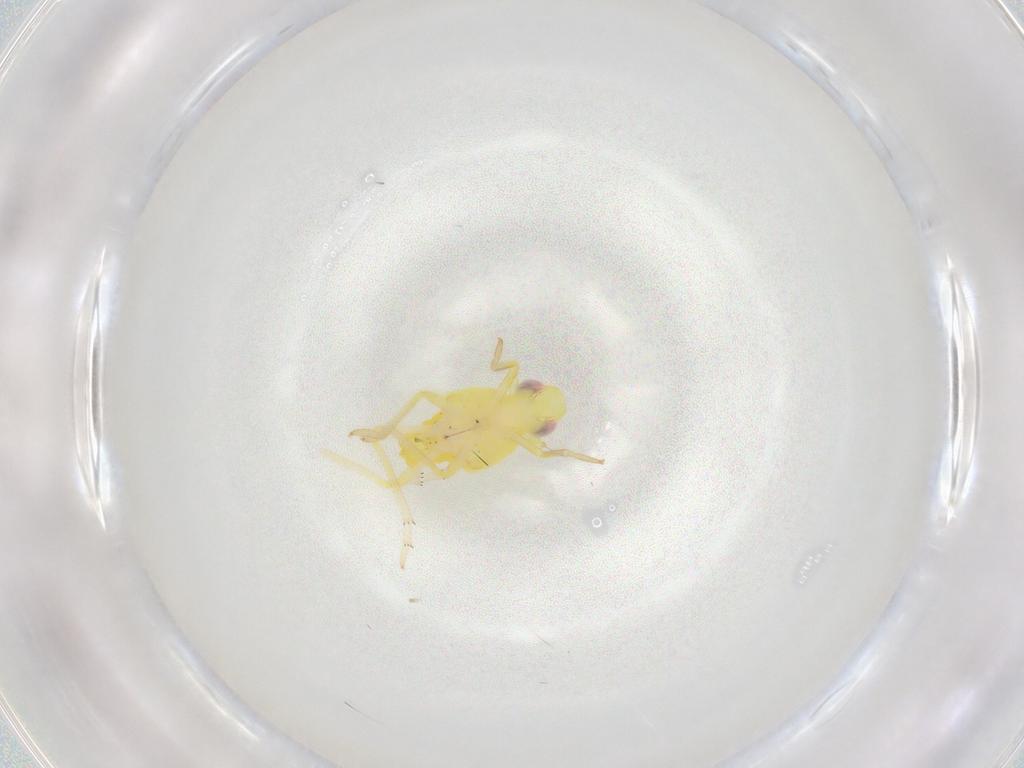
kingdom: Animalia
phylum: Arthropoda
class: Insecta
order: Hemiptera
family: Fulgoroidea_incertae_sedis
